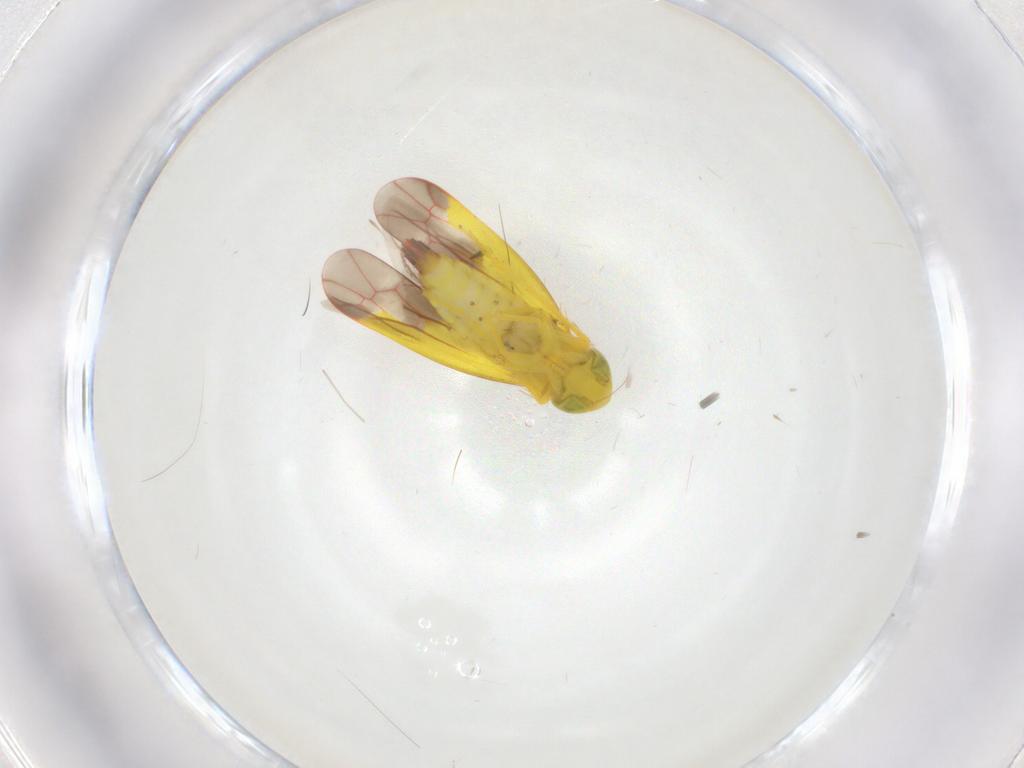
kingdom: Animalia
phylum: Arthropoda
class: Insecta
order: Hemiptera
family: Cicadellidae
